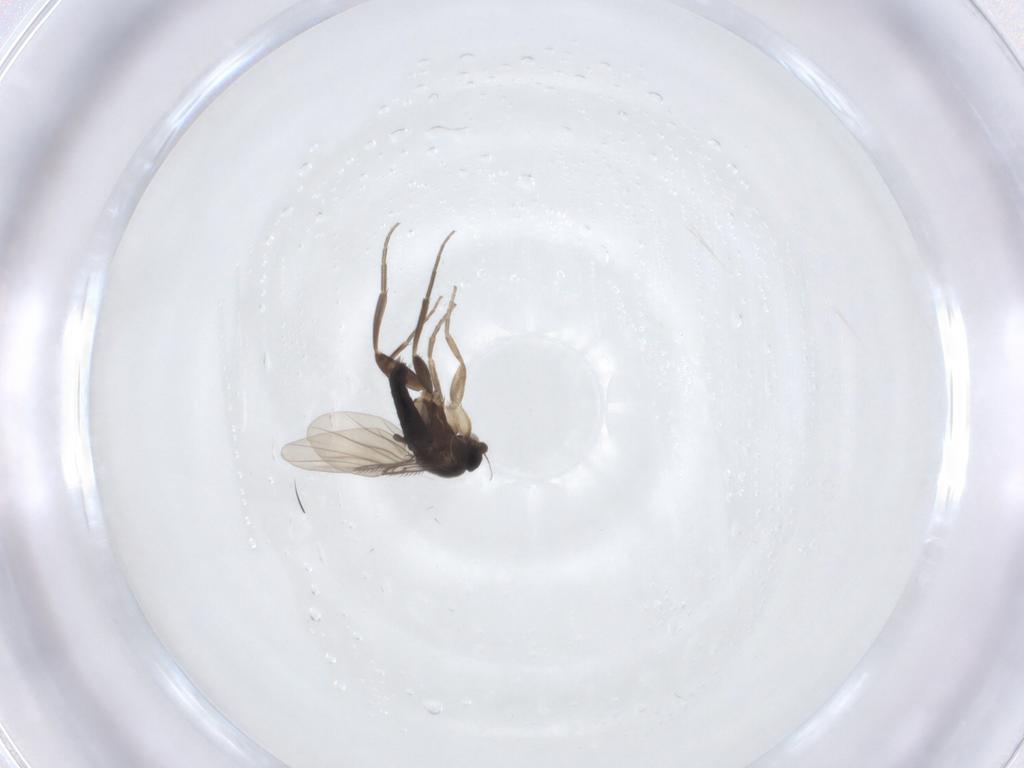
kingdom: Animalia
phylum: Arthropoda
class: Insecta
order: Diptera
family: Phoridae
